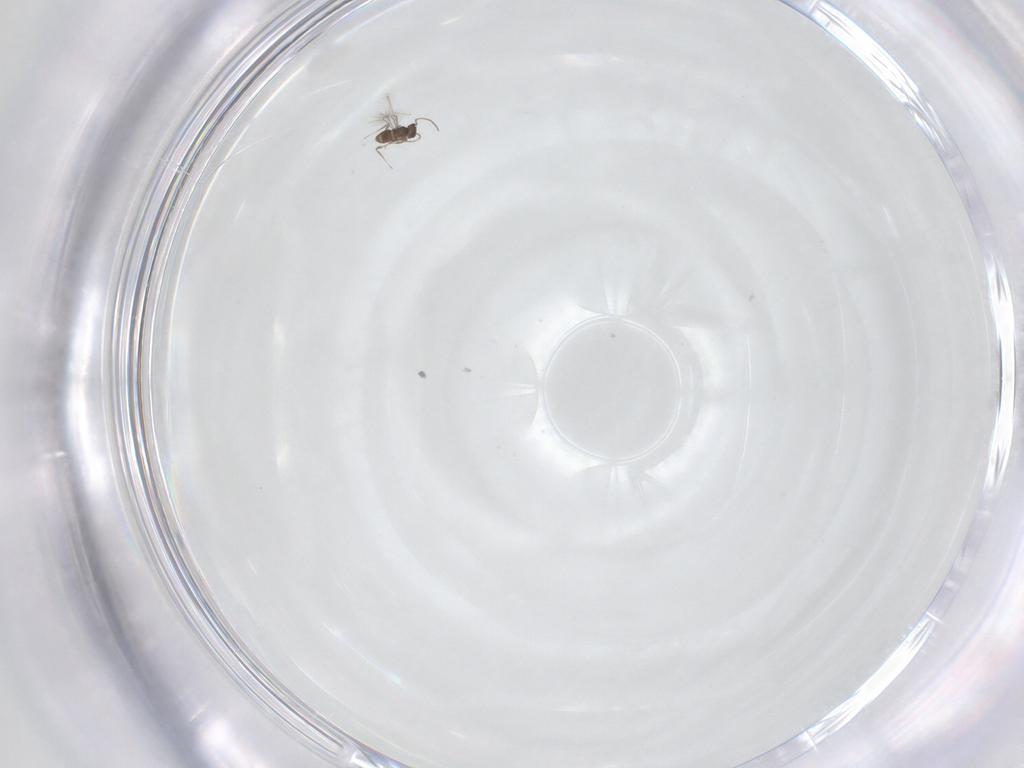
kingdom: Animalia
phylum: Arthropoda
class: Insecta
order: Hymenoptera
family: Mymaridae
